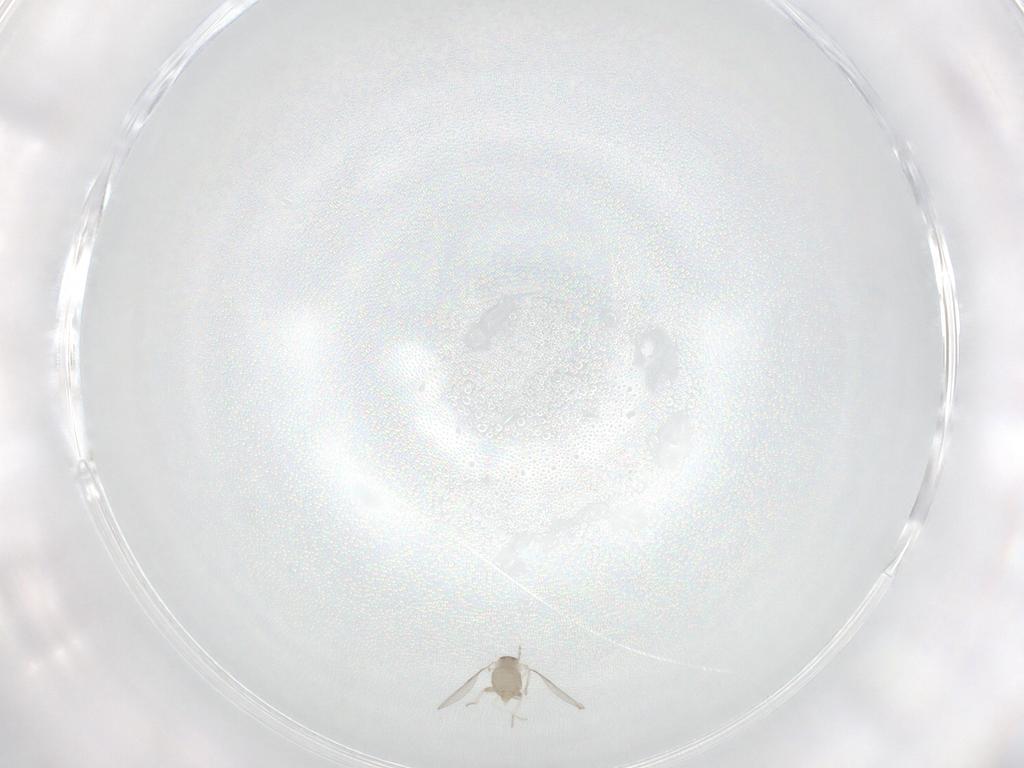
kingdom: Animalia
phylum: Arthropoda
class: Insecta
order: Diptera
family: Cecidomyiidae
